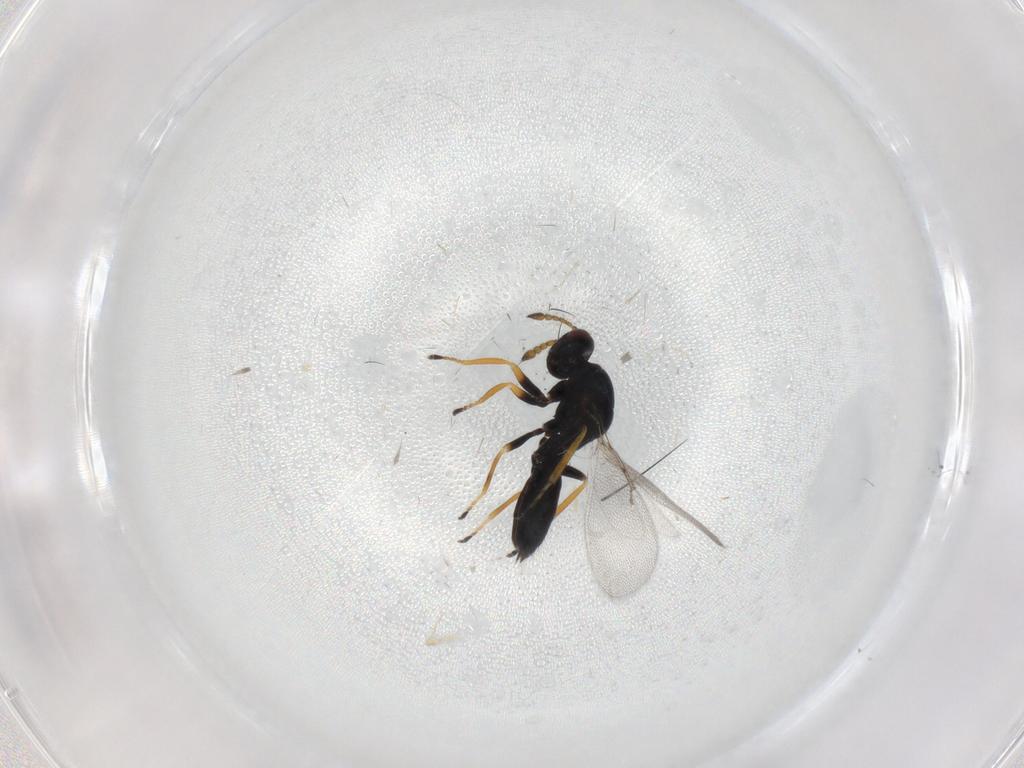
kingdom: Animalia
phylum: Arthropoda
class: Insecta
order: Hymenoptera
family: Eulophidae
